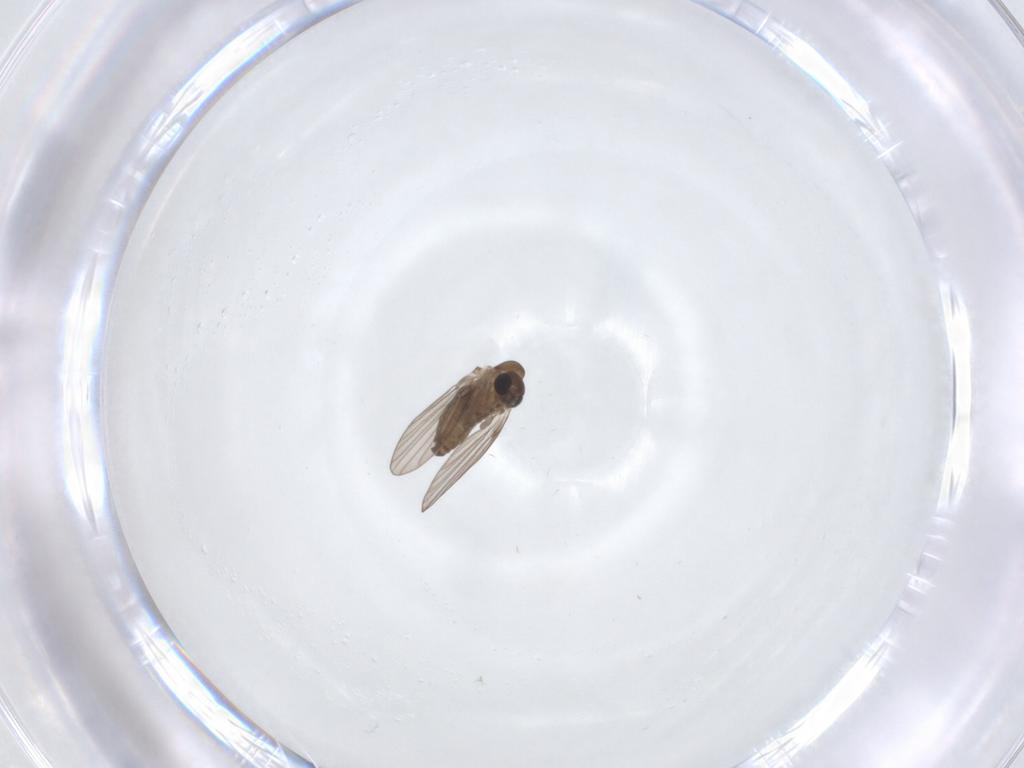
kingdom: Animalia
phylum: Arthropoda
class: Insecta
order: Diptera
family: Psychodidae
